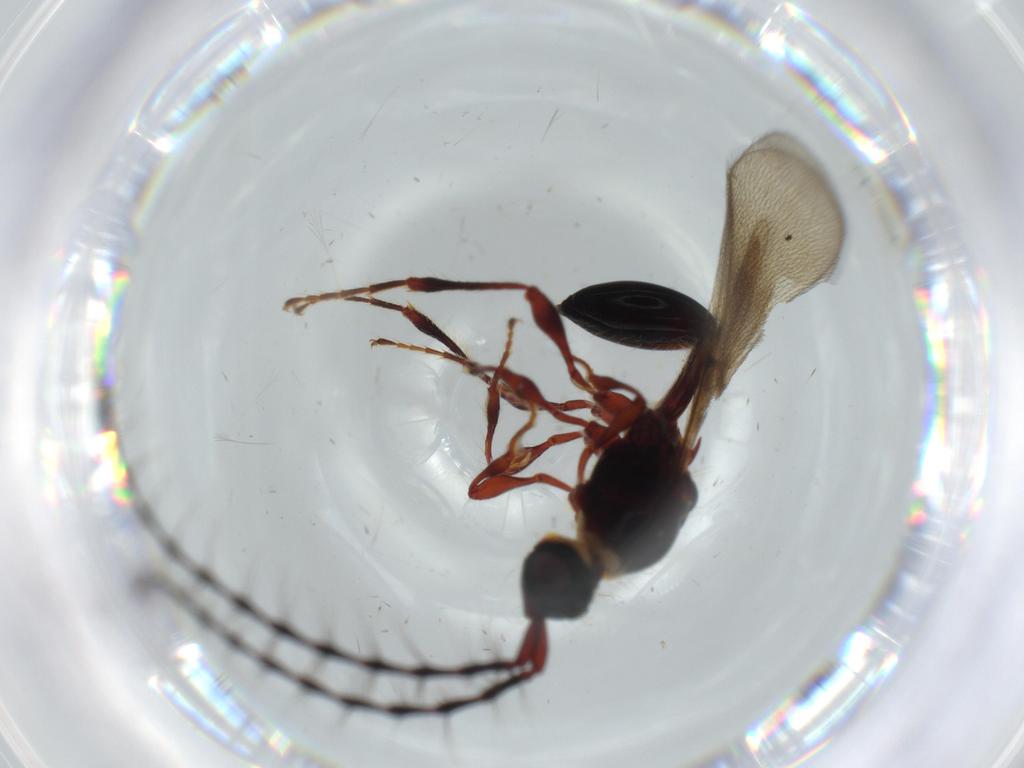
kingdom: Animalia
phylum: Arthropoda
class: Insecta
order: Hymenoptera
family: Diapriidae
